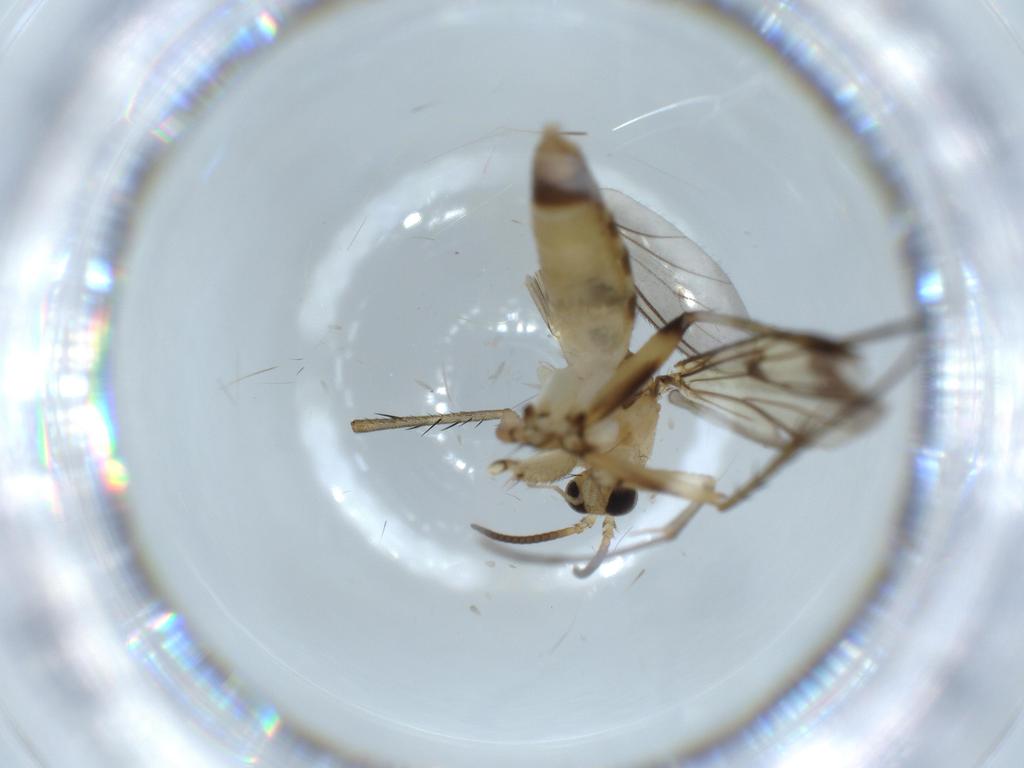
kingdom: Animalia
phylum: Arthropoda
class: Insecta
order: Diptera
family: Cecidomyiidae
